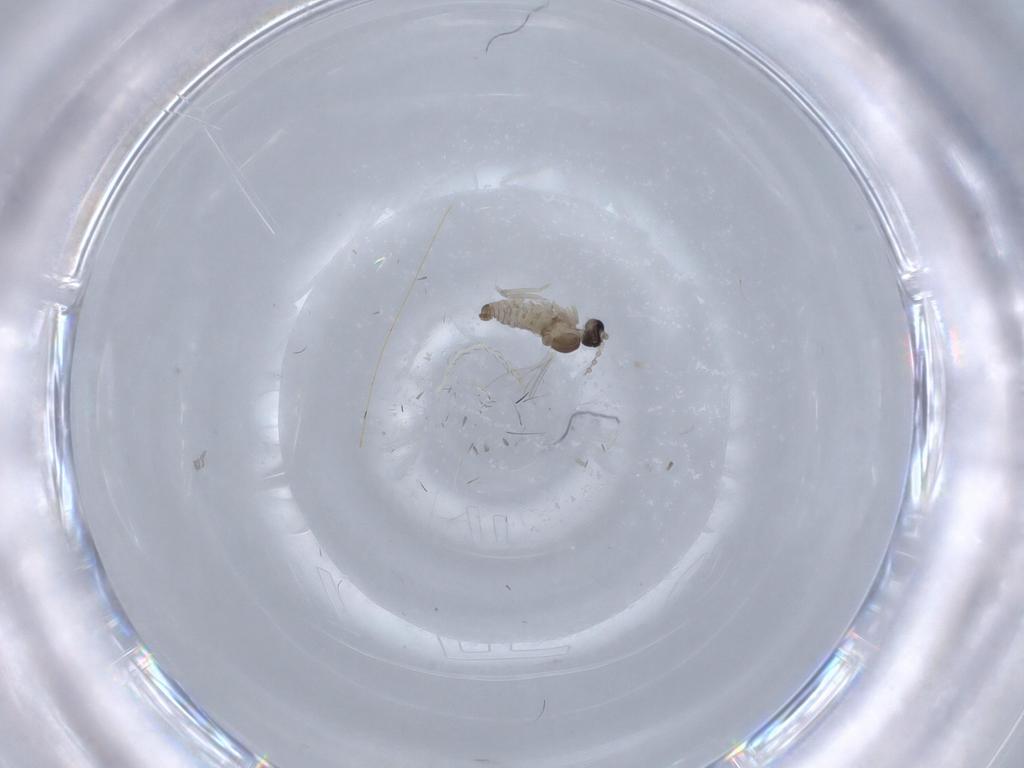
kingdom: Animalia
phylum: Arthropoda
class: Insecta
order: Diptera
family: Cecidomyiidae
